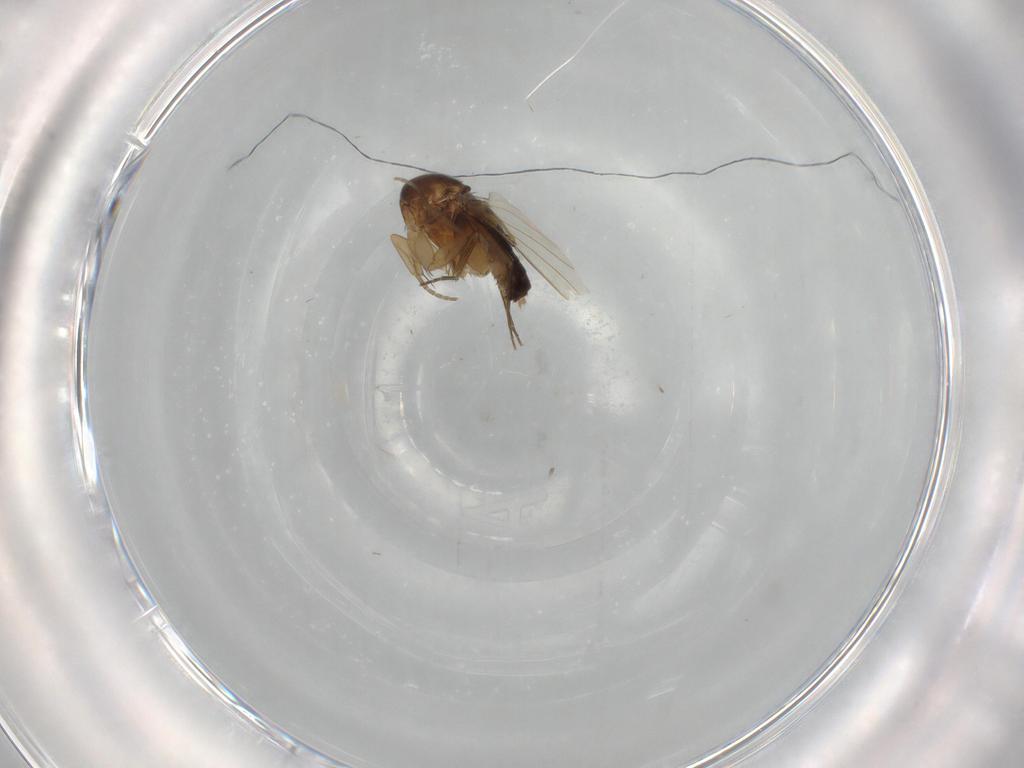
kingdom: Animalia
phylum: Arthropoda
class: Insecta
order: Diptera
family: Phoridae
